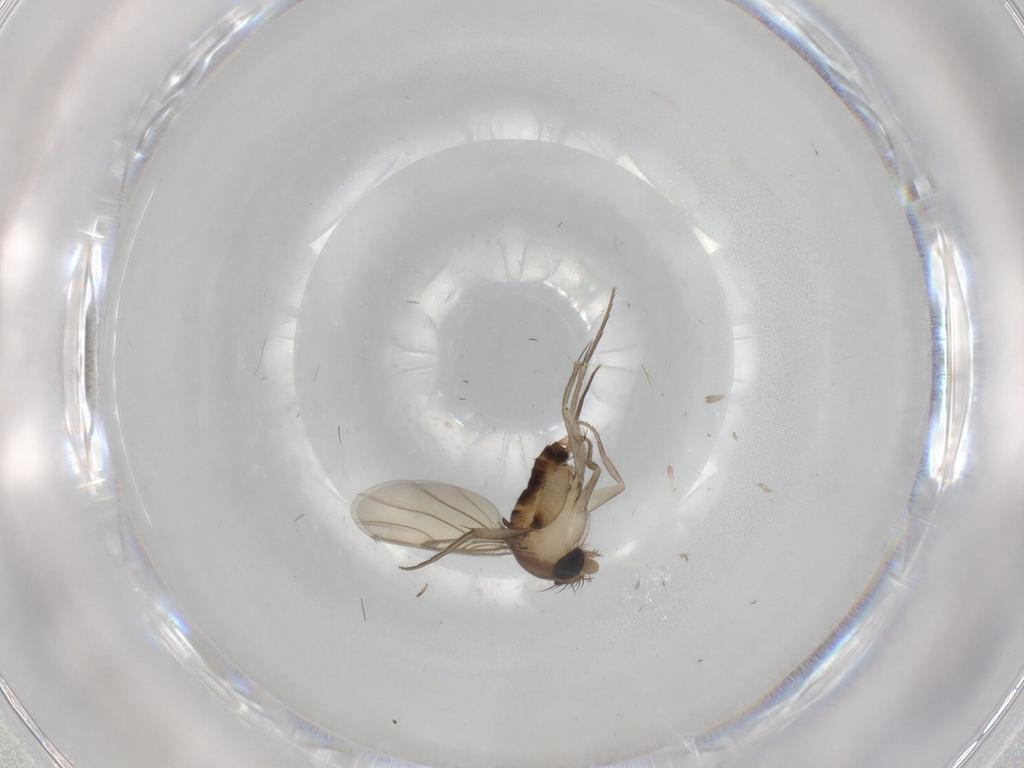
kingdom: Animalia
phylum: Arthropoda
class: Insecta
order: Diptera
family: Phoridae
